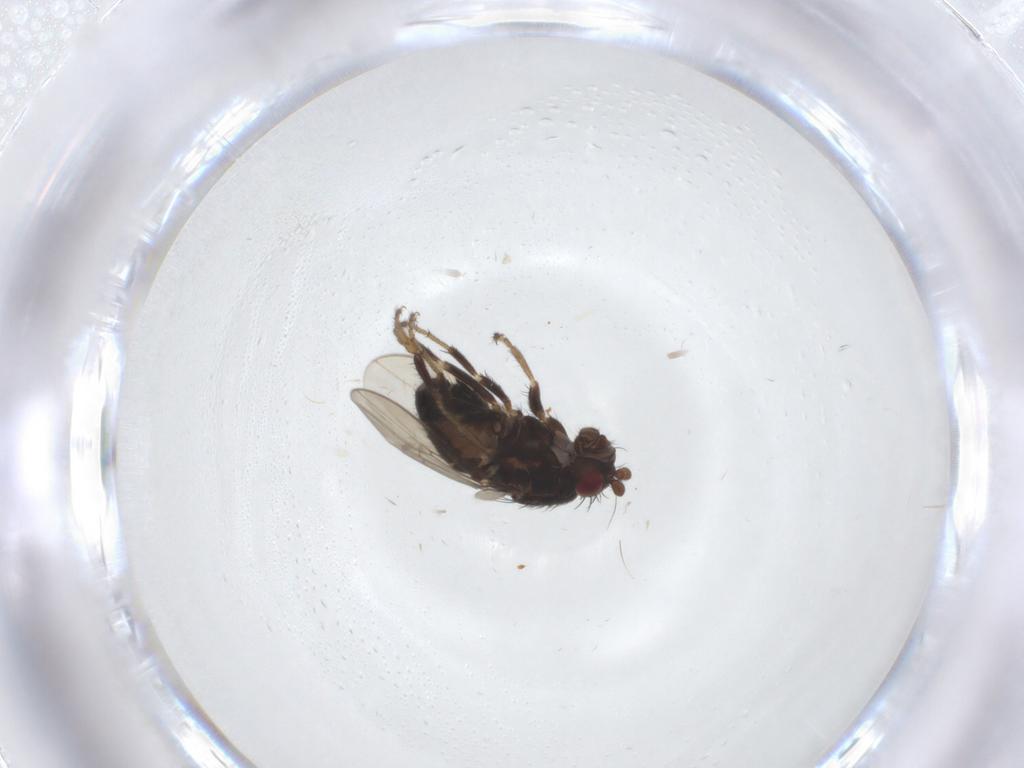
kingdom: Animalia
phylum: Arthropoda
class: Insecta
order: Diptera
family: Sphaeroceridae
